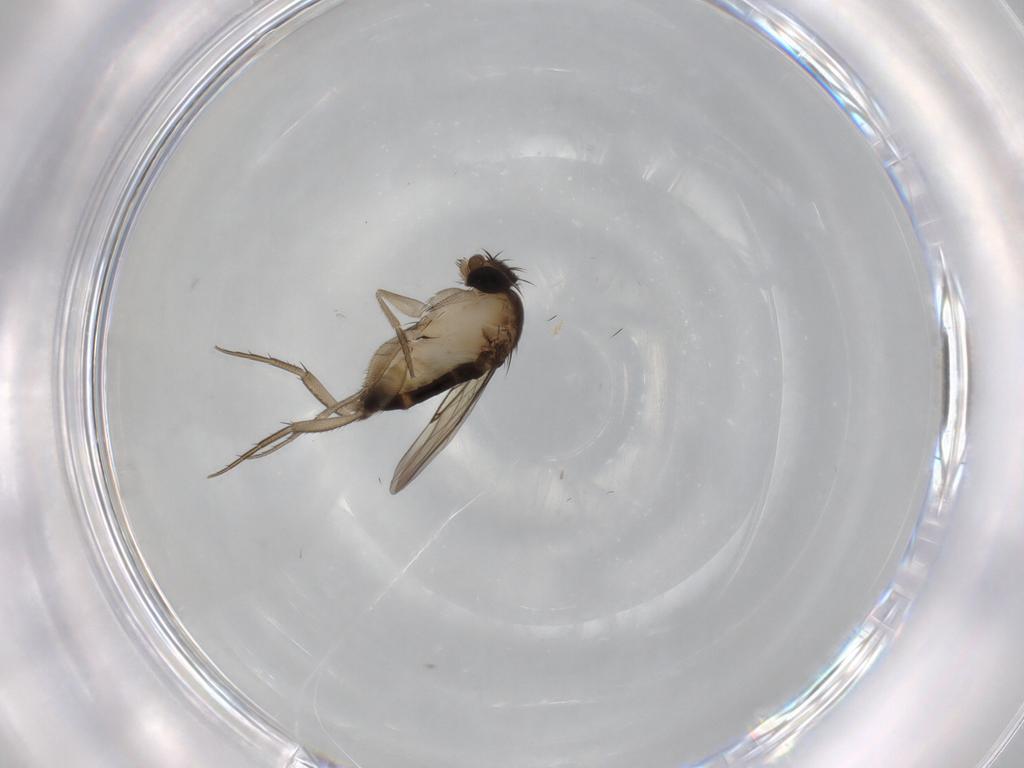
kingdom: Animalia
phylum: Arthropoda
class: Insecta
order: Diptera
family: Phoridae
